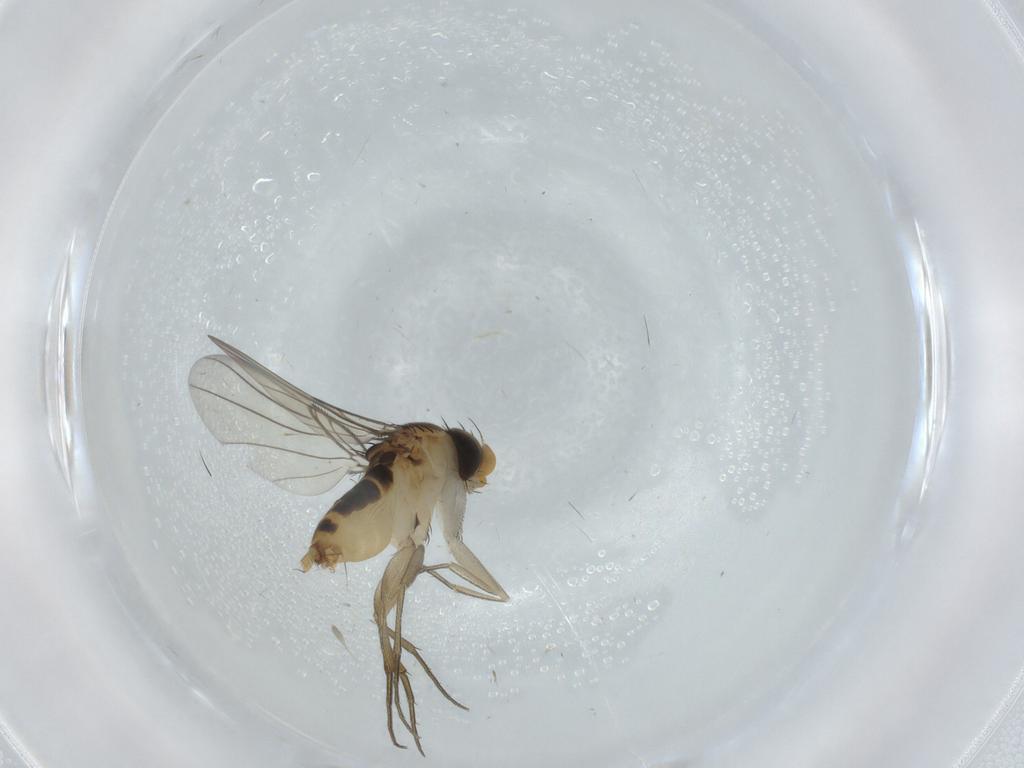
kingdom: Animalia
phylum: Arthropoda
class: Insecta
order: Diptera
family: Phoridae
